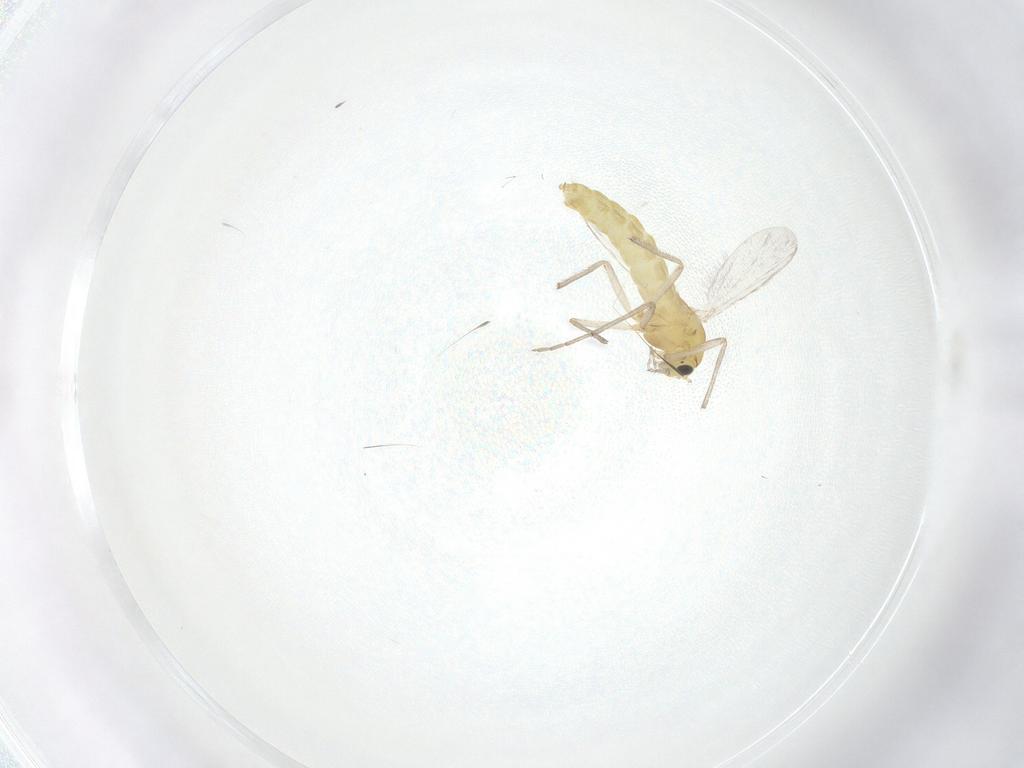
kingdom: Animalia
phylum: Arthropoda
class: Insecta
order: Diptera
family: Chironomidae
